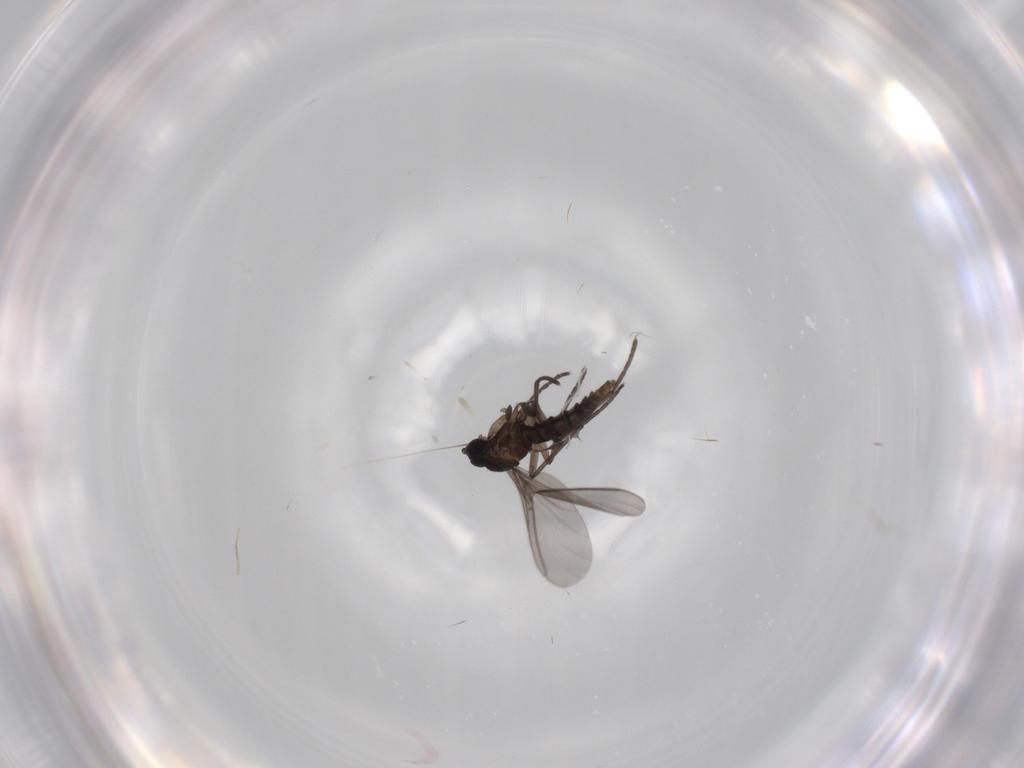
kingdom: Animalia
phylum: Arthropoda
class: Insecta
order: Diptera
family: Sciaridae
